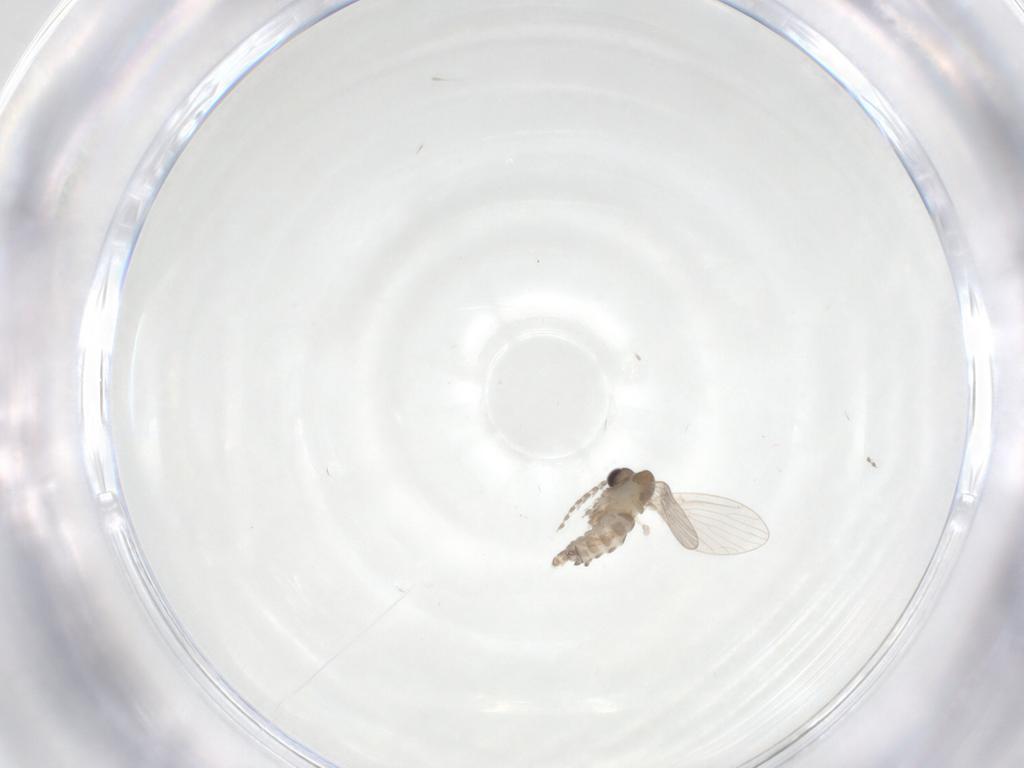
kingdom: Animalia
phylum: Arthropoda
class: Insecta
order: Diptera
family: Psychodidae
